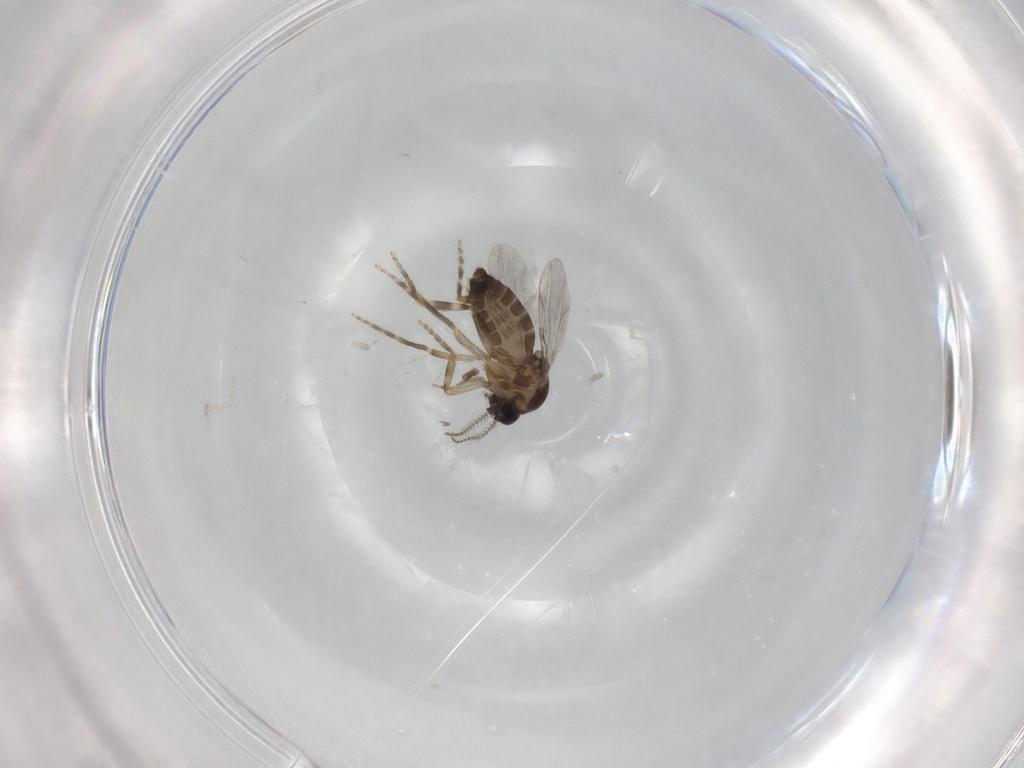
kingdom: Animalia
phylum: Arthropoda
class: Insecta
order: Diptera
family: Ceratopogonidae
